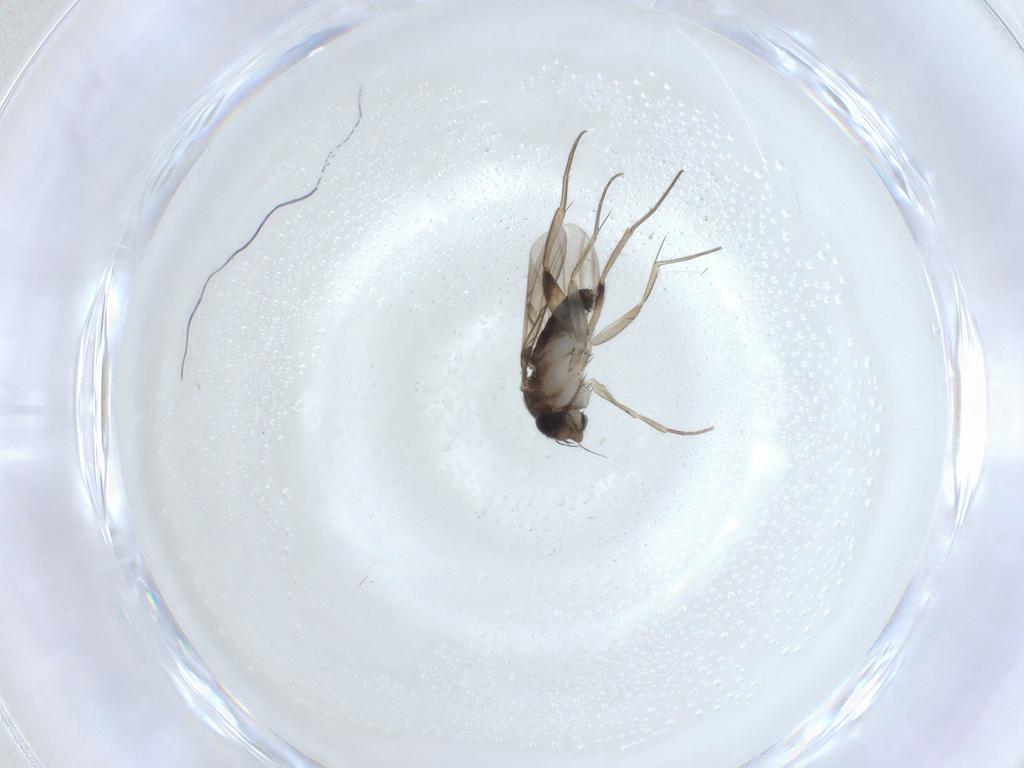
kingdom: Animalia
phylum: Arthropoda
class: Insecta
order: Diptera
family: Phoridae
